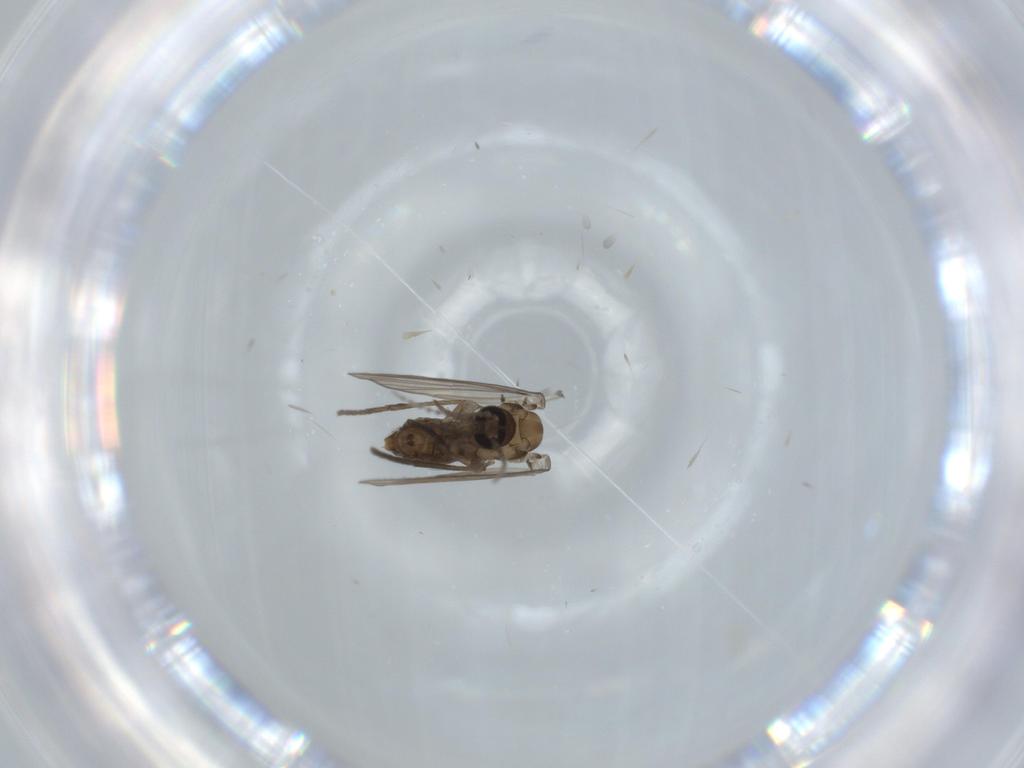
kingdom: Animalia
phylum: Arthropoda
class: Insecta
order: Diptera
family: Psychodidae
